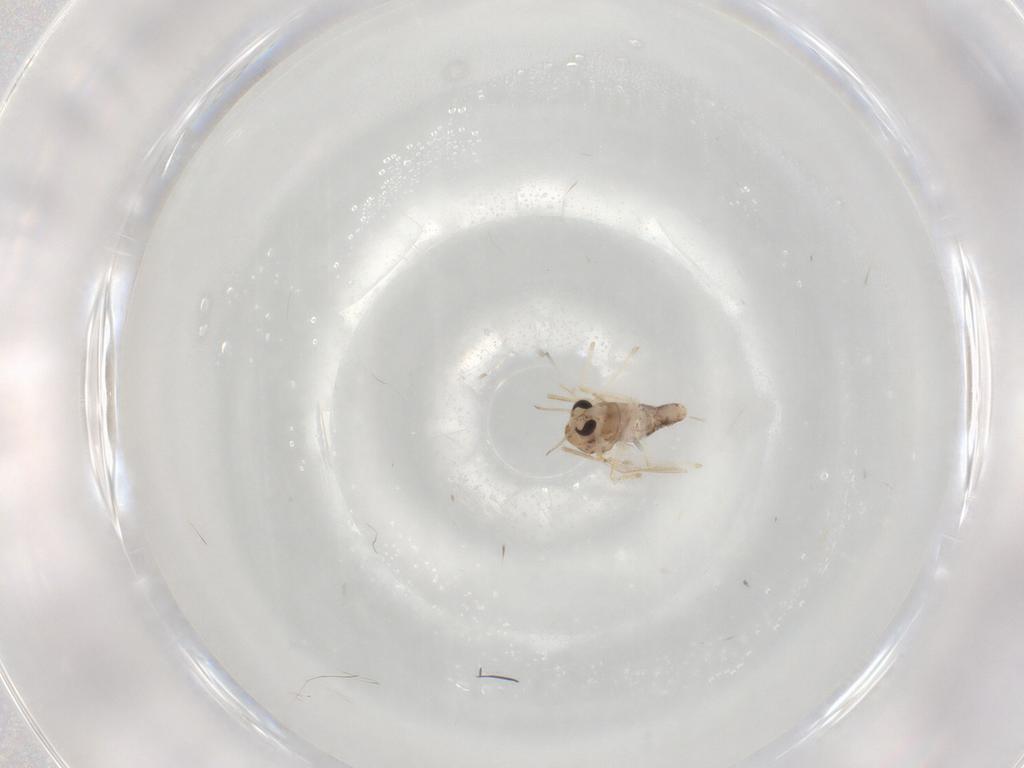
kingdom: Animalia
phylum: Arthropoda
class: Insecta
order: Diptera
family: Chironomidae
